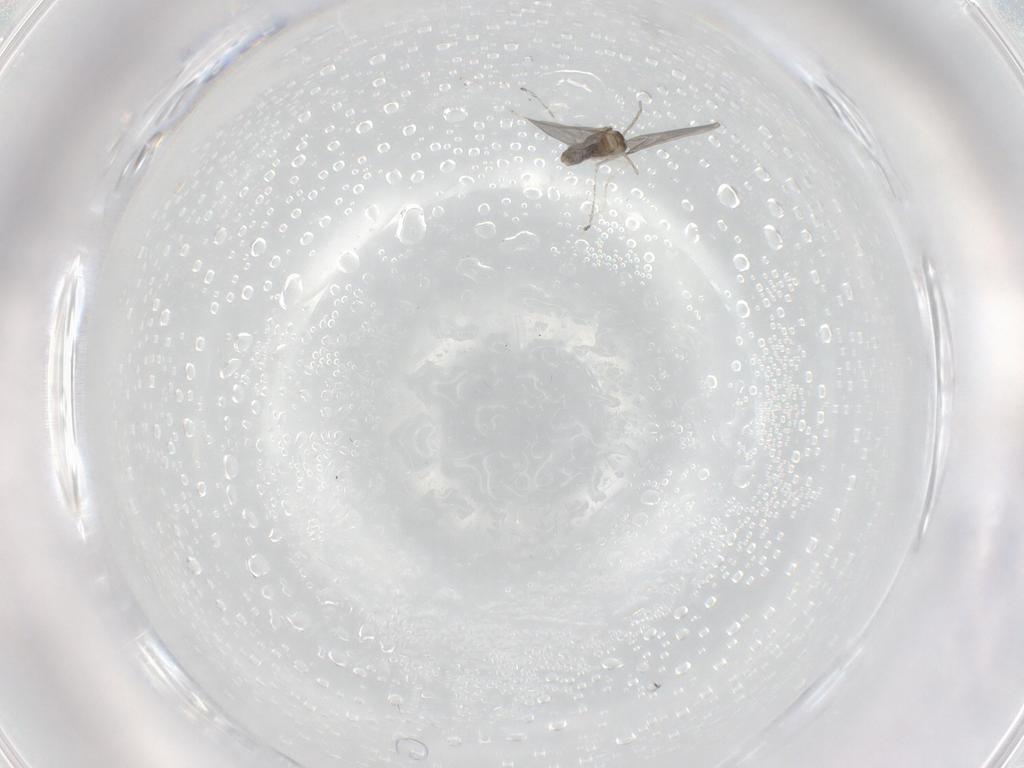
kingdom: Animalia
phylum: Arthropoda
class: Insecta
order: Diptera
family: Cecidomyiidae
